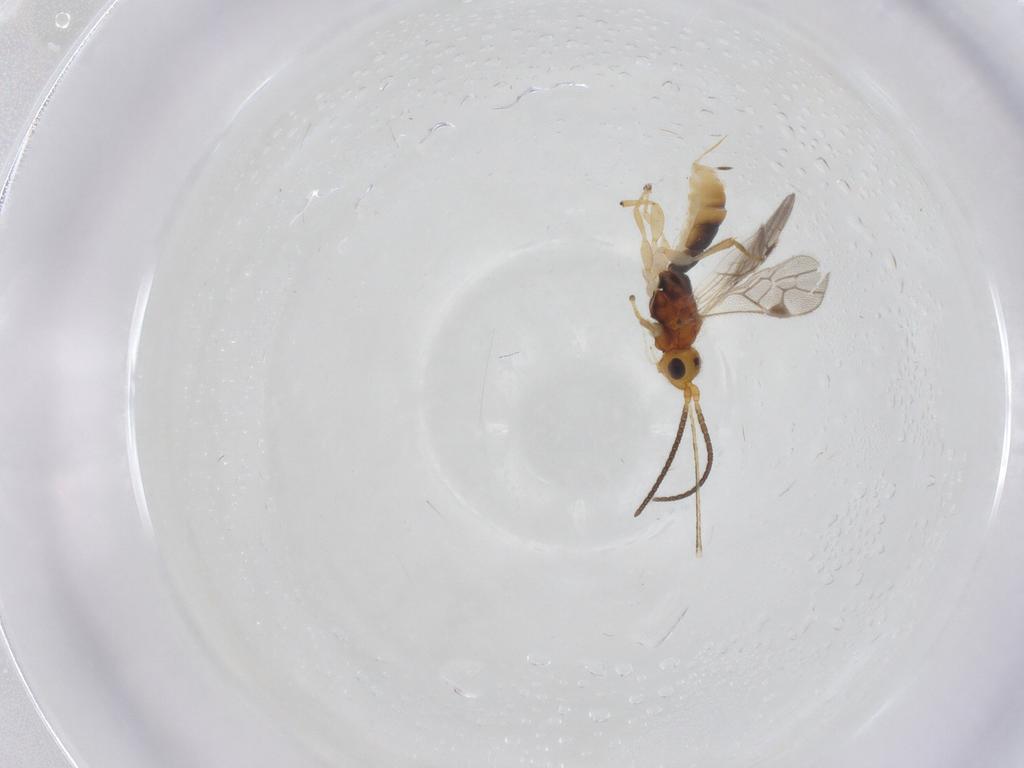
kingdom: Animalia
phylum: Arthropoda
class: Insecta
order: Hymenoptera
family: Braconidae
